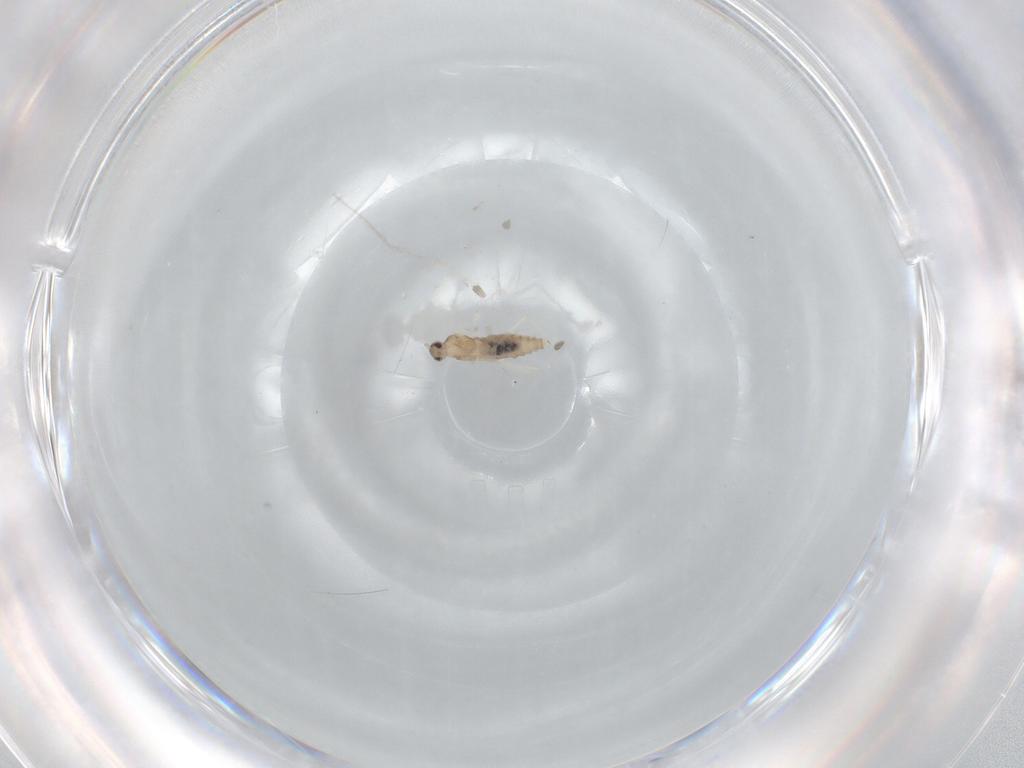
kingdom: Animalia
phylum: Arthropoda
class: Insecta
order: Diptera
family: Cecidomyiidae
